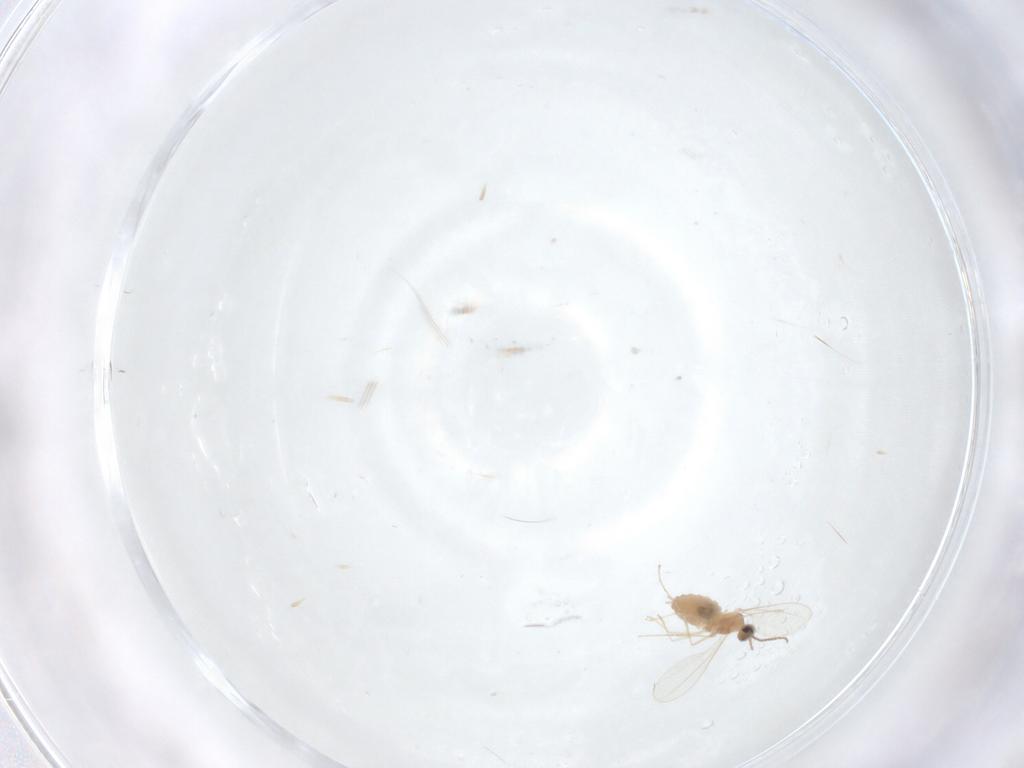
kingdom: Animalia
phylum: Arthropoda
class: Insecta
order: Diptera
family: Cecidomyiidae
